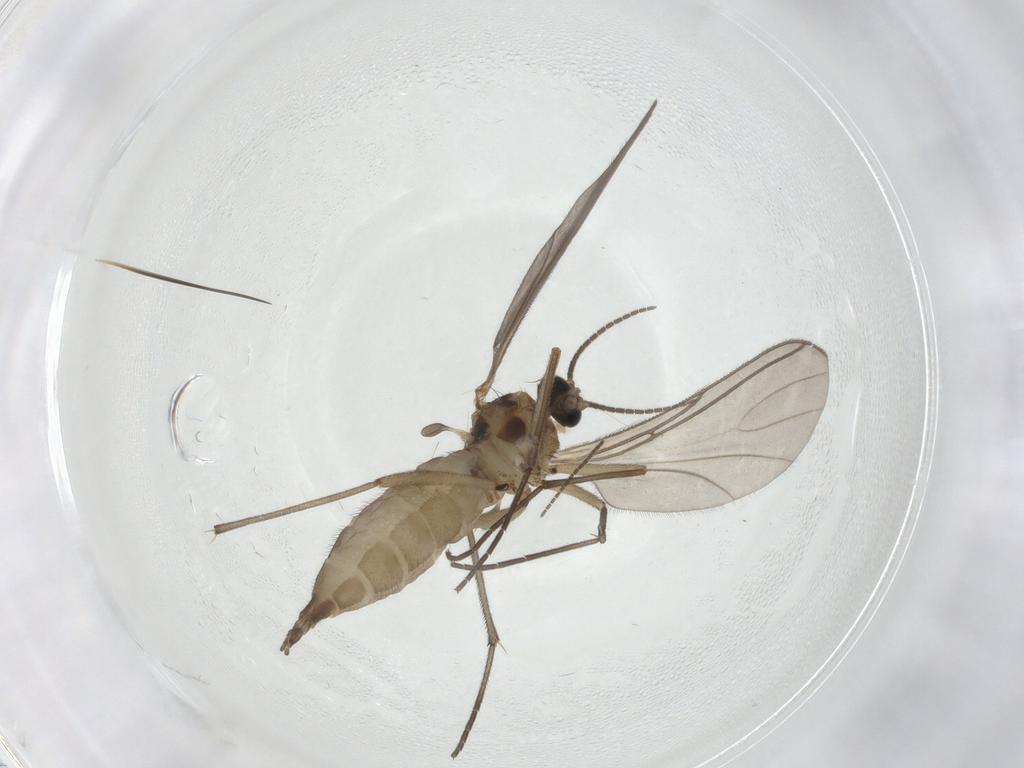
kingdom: Animalia
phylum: Arthropoda
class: Insecta
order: Diptera
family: Sciaridae
